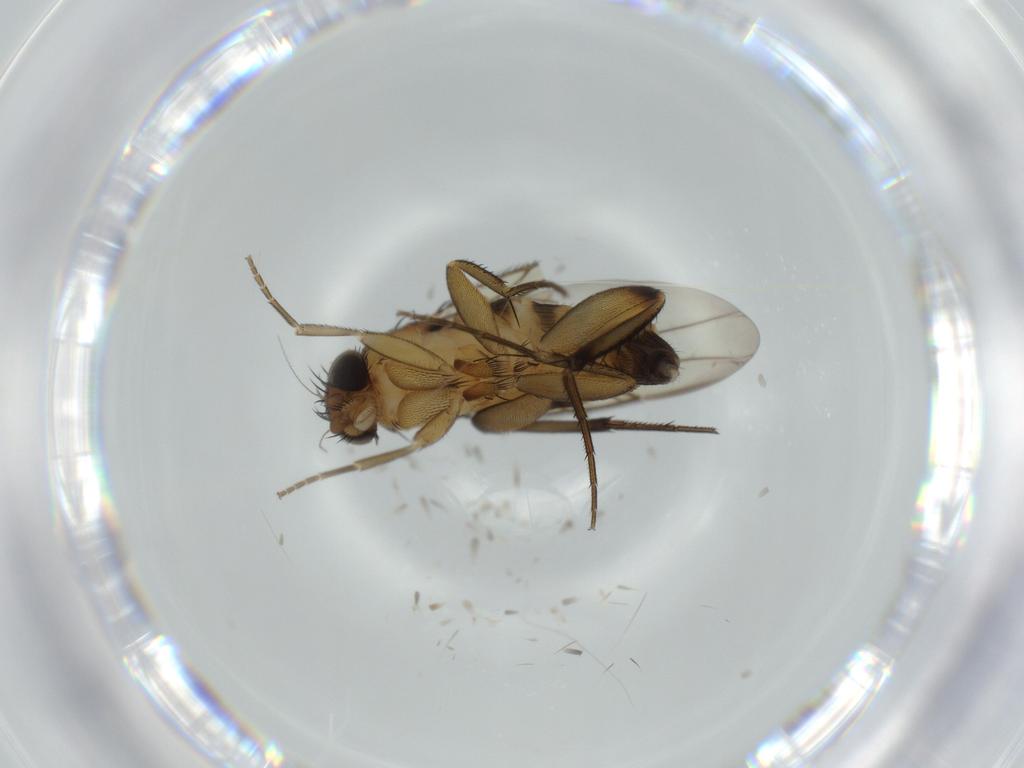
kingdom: Animalia
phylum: Arthropoda
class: Insecta
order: Diptera
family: Phoridae
